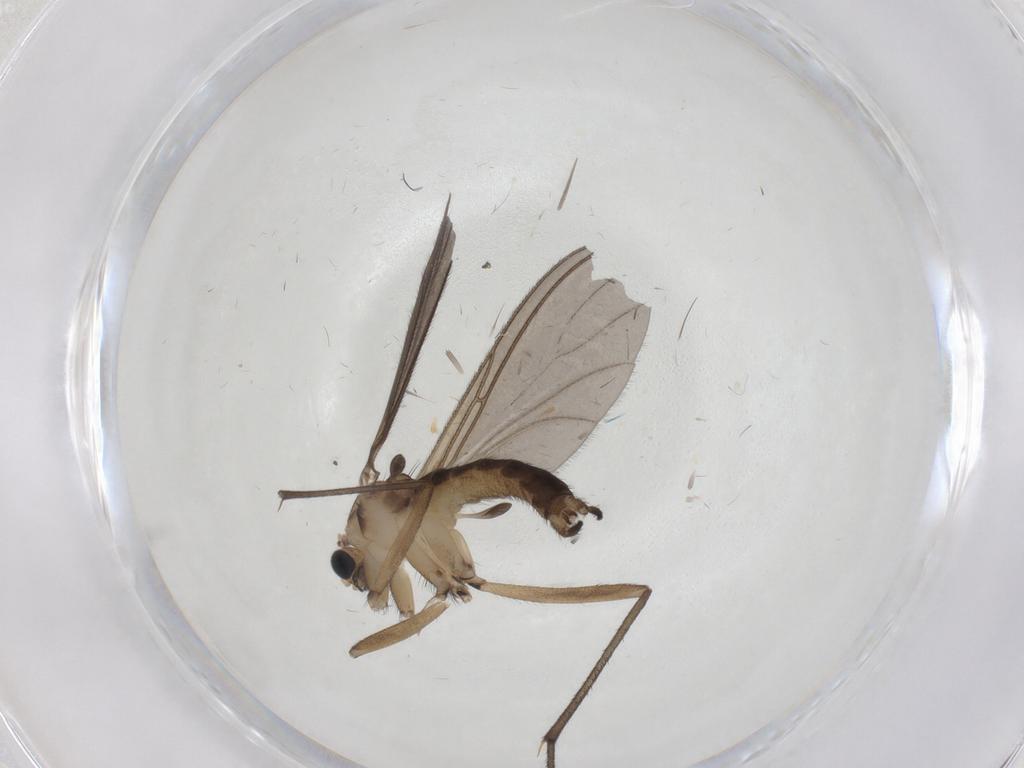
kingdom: Animalia
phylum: Arthropoda
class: Insecta
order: Diptera
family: Sciaridae
